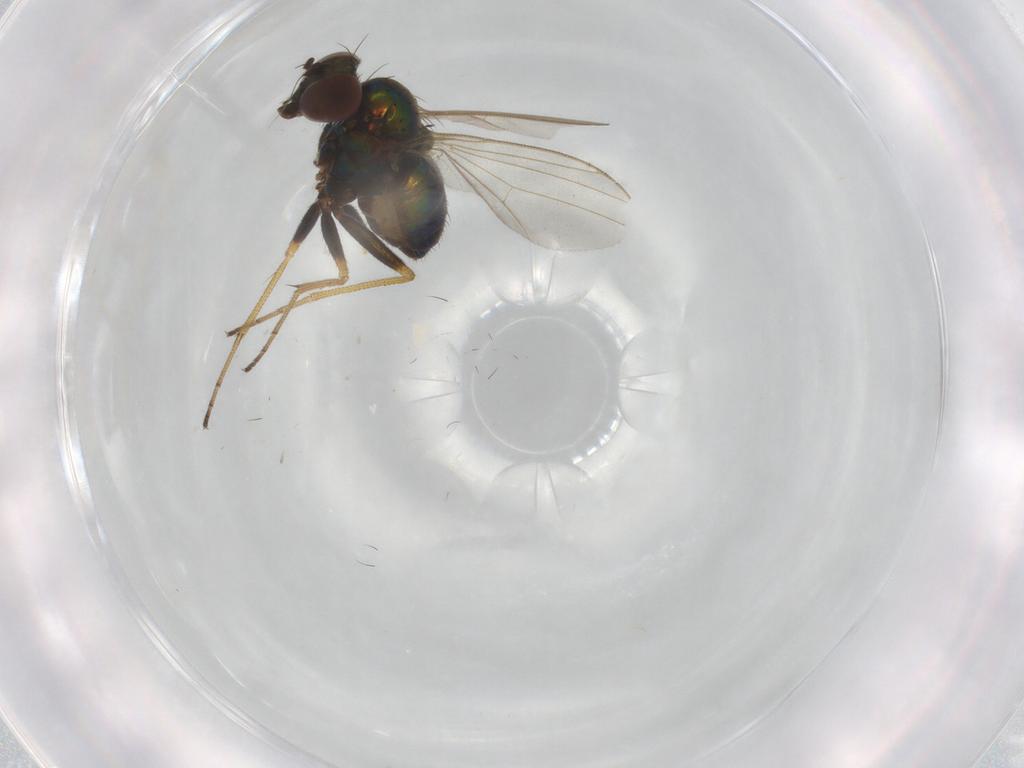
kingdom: Animalia
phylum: Arthropoda
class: Insecta
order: Diptera
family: Dolichopodidae
